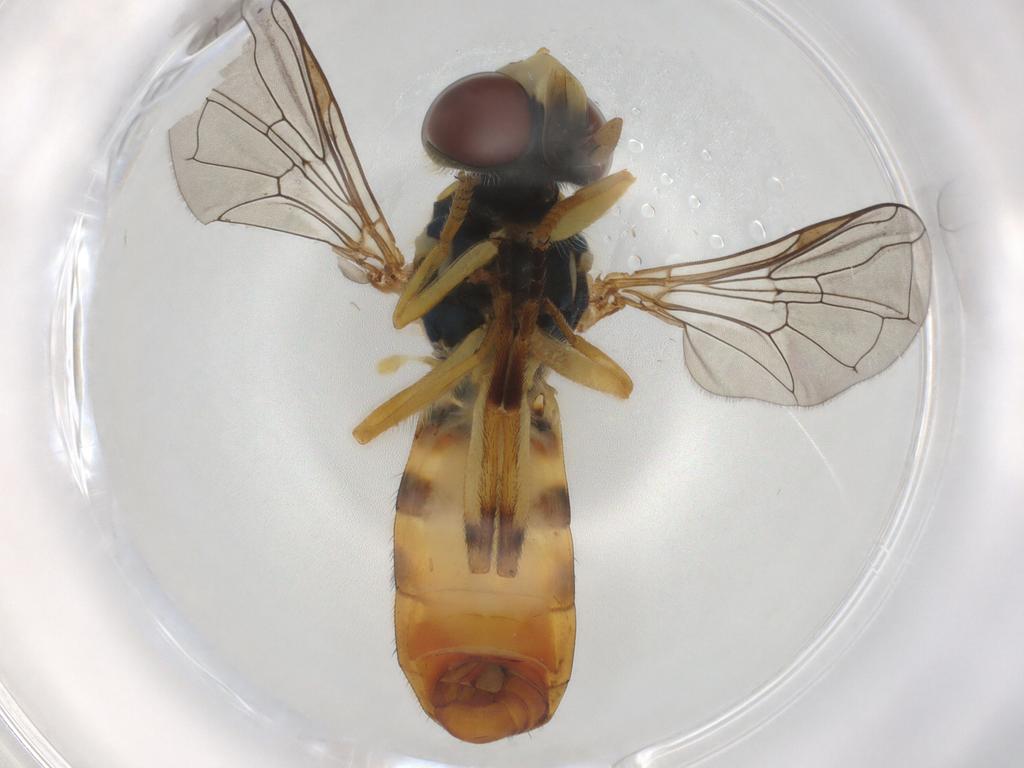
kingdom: Animalia
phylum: Arthropoda
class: Insecta
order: Diptera
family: Syrphidae
